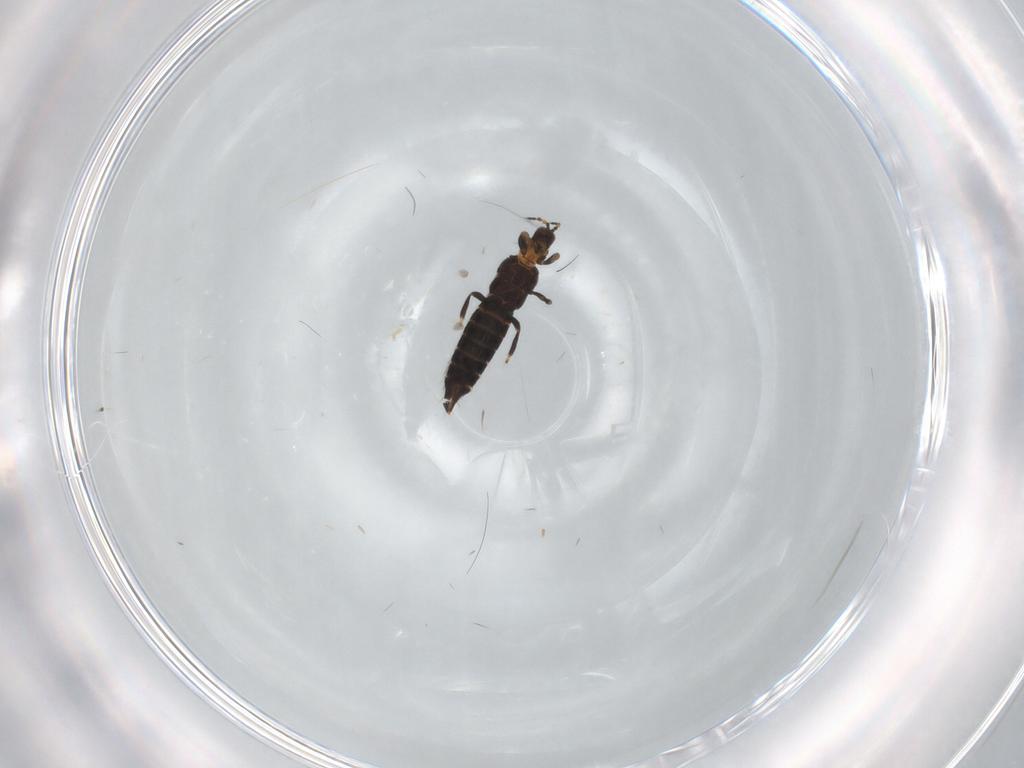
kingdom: Animalia
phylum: Arthropoda
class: Insecta
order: Thysanoptera
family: Thripidae
